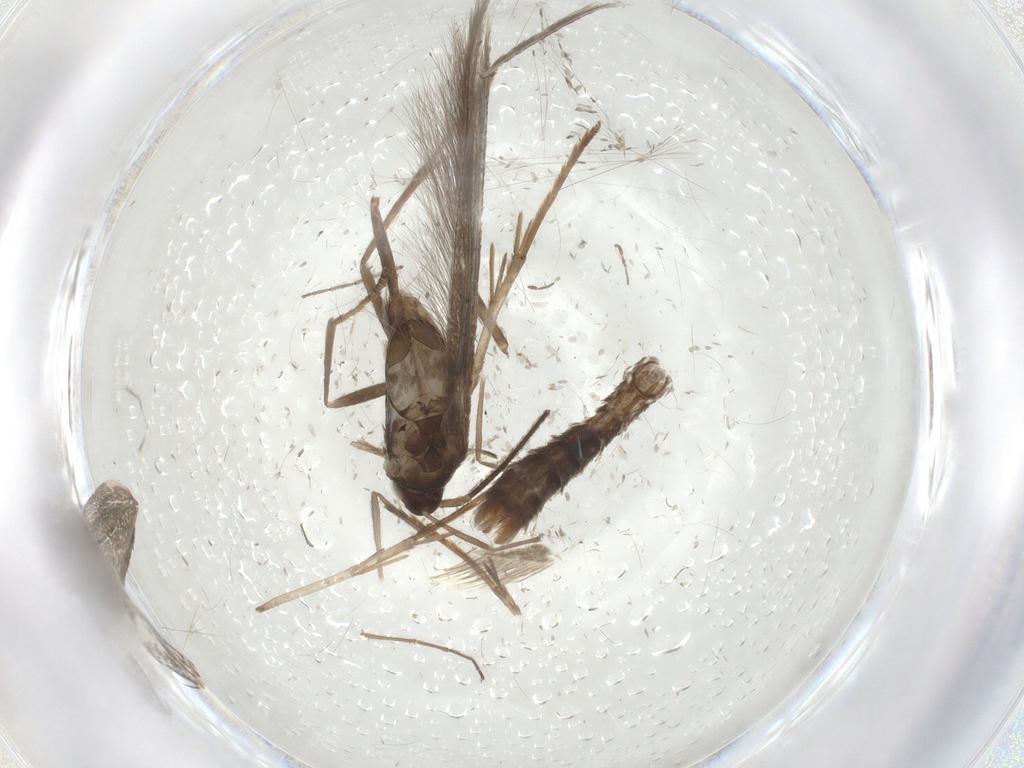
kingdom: Animalia
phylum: Arthropoda
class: Insecta
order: Lepidoptera
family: Coleophoridae
